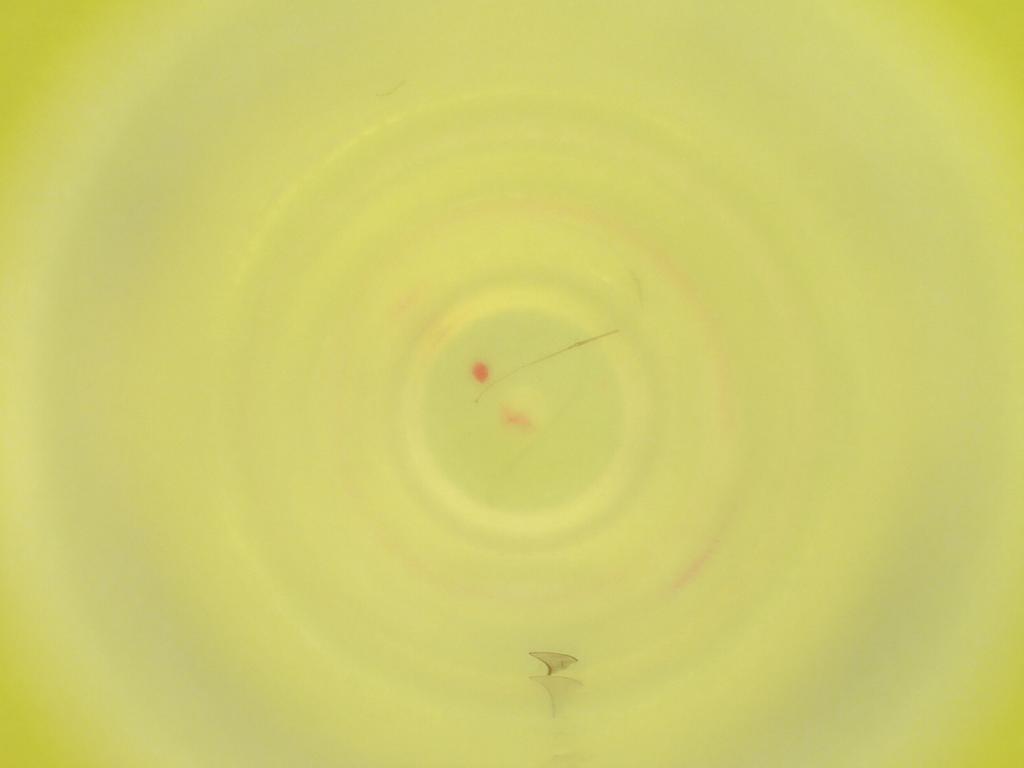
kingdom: Animalia
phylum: Arthropoda
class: Insecta
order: Diptera
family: Cecidomyiidae
